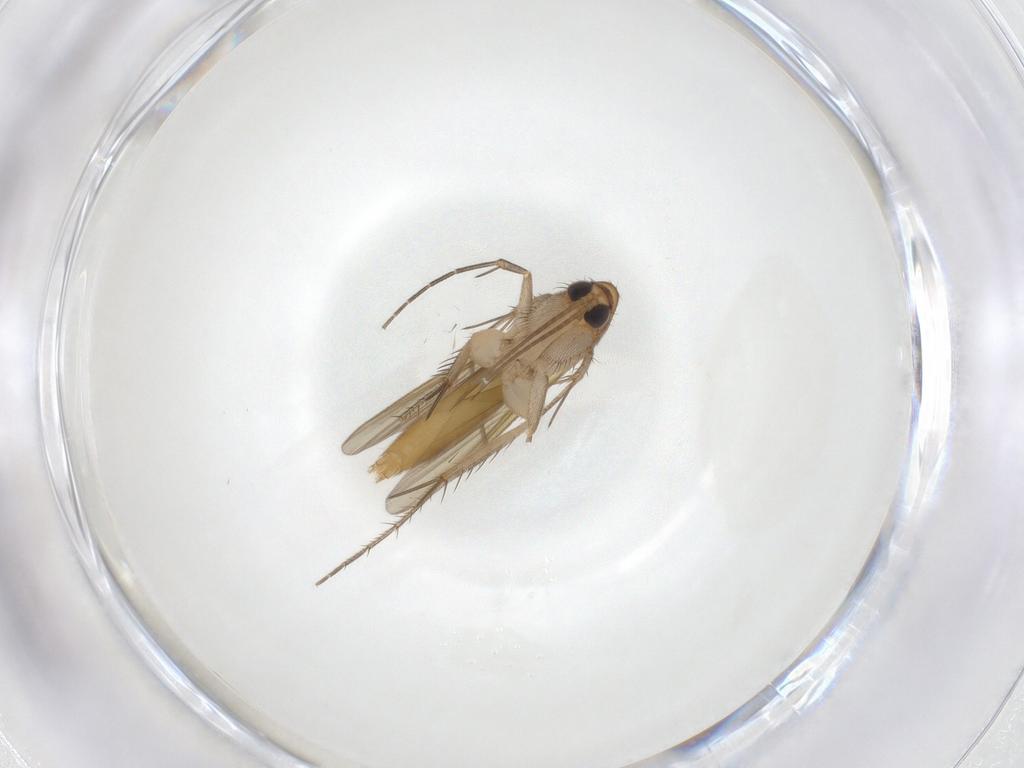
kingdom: Animalia
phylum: Arthropoda
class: Insecta
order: Diptera
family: Mycetophilidae
